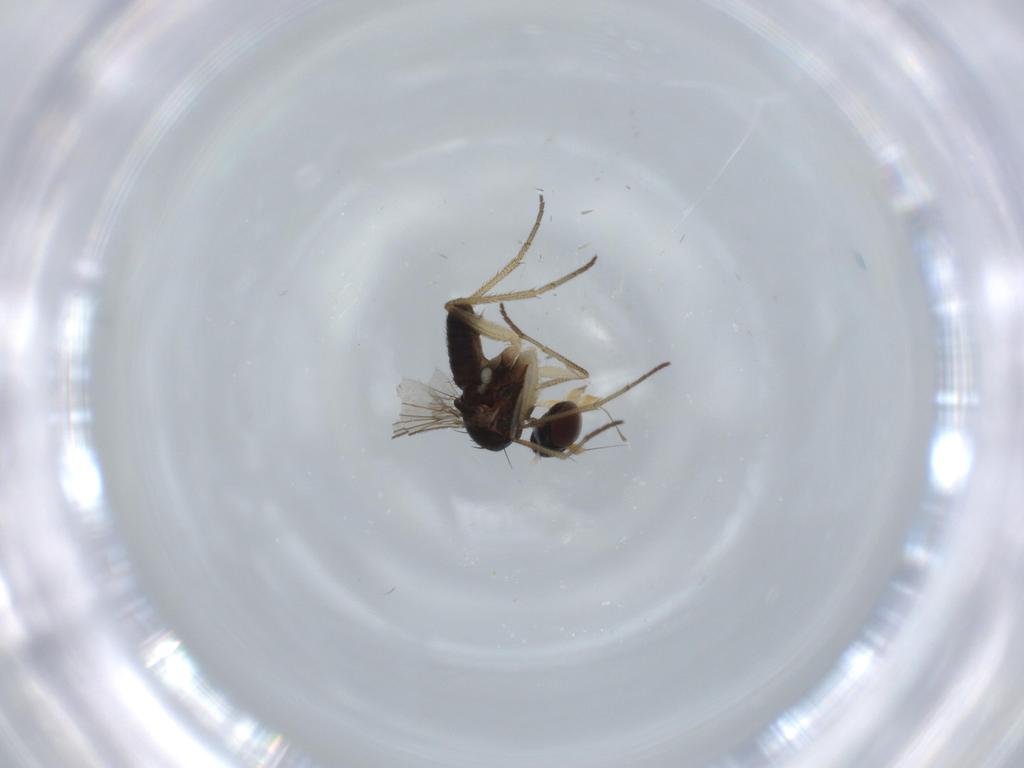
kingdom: Animalia
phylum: Arthropoda
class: Insecta
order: Diptera
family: Dolichopodidae
